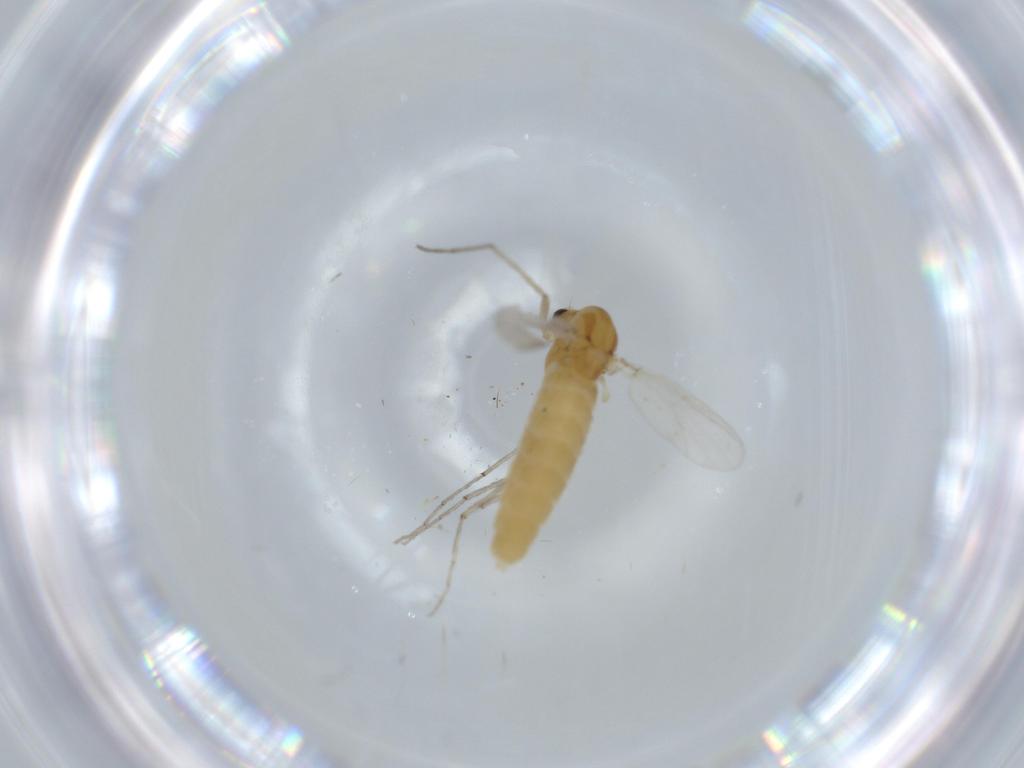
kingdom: Animalia
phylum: Arthropoda
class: Insecta
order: Diptera
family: Chironomidae
